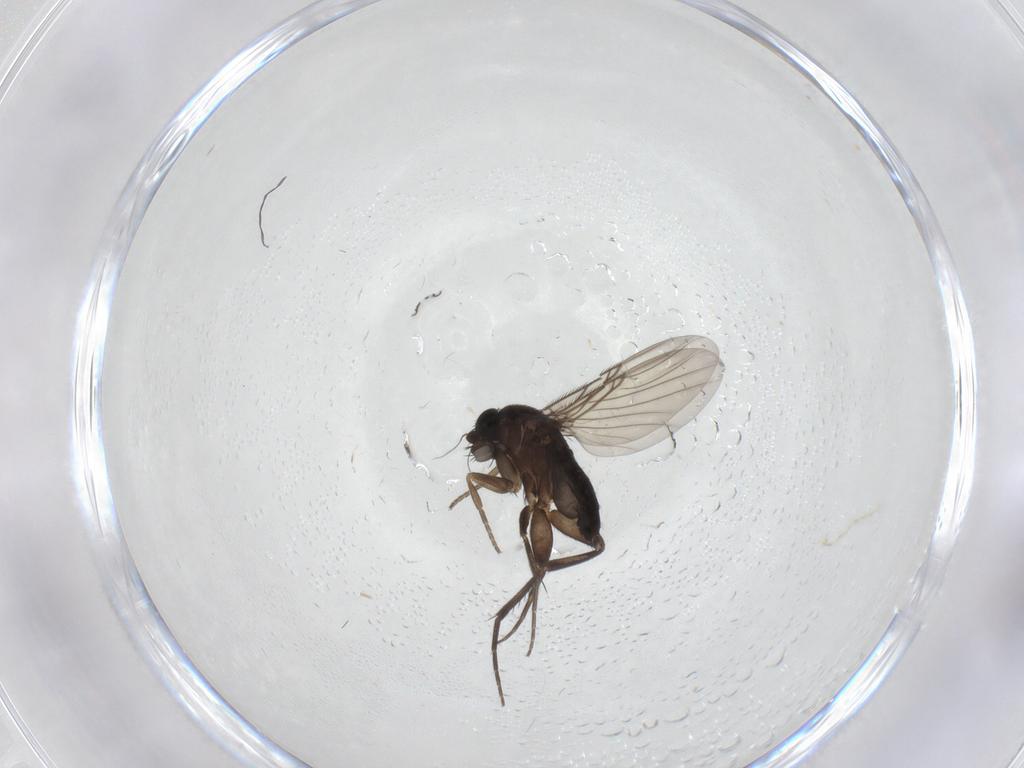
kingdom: Animalia
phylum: Arthropoda
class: Insecta
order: Diptera
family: Phoridae
